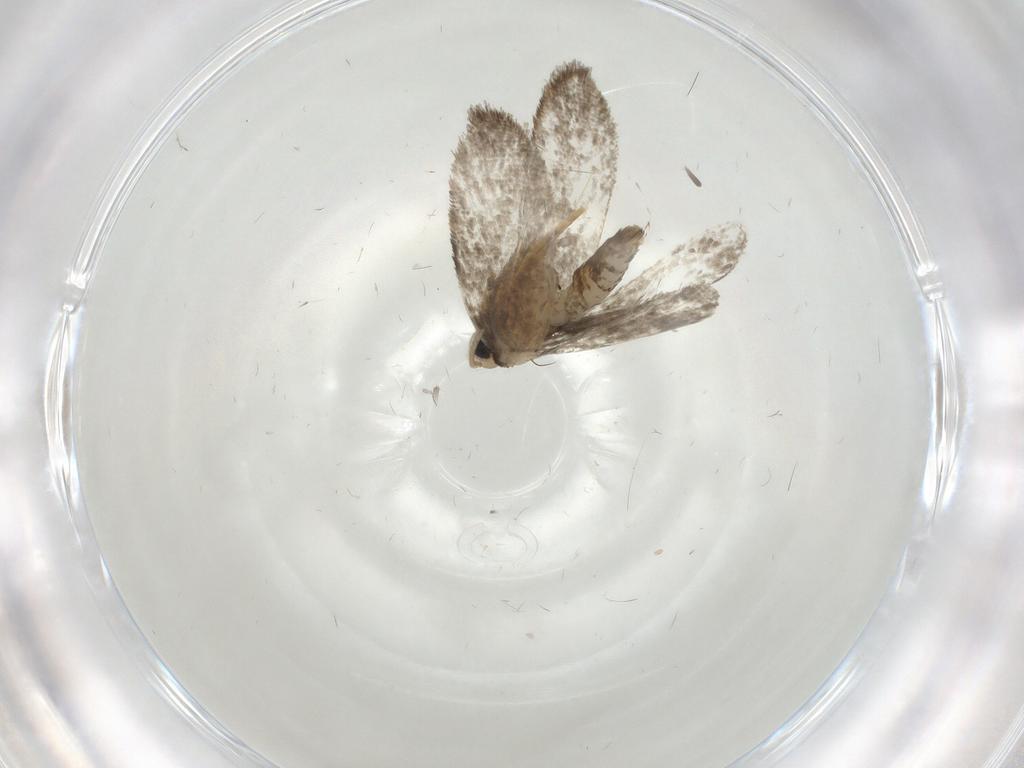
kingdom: Animalia
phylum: Arthropoda
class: Insecta
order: Lepidoptera
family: Psychidae
